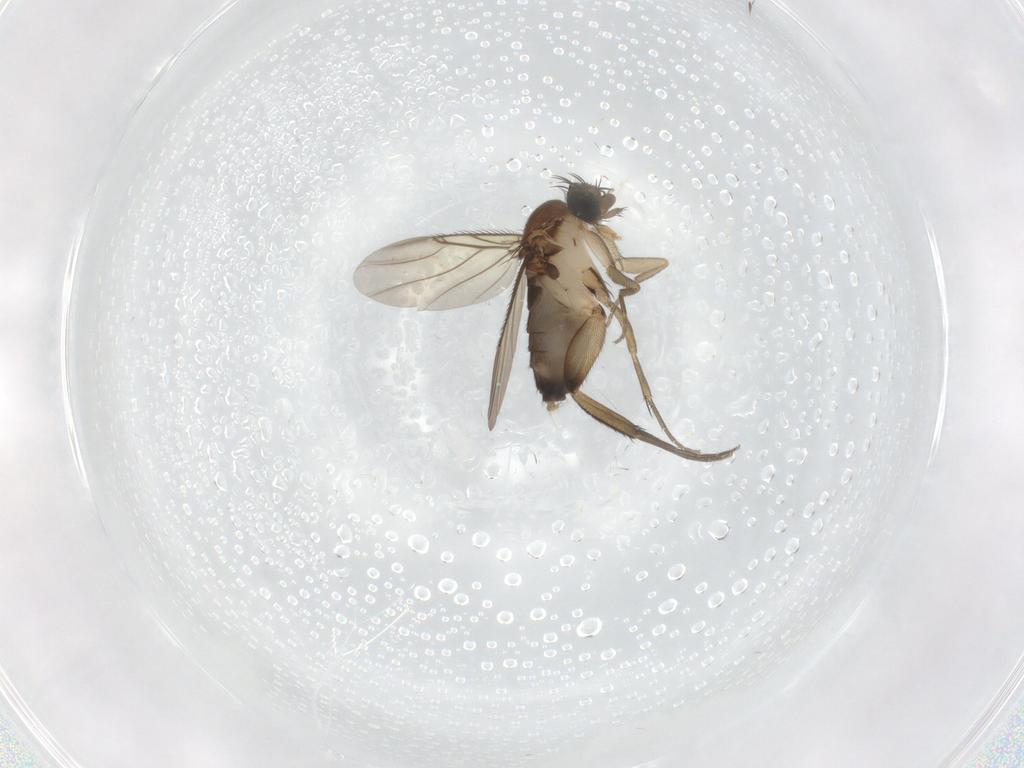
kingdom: Animalia
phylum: Arthropoda
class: Insecta
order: Diptera
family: Phoridae
